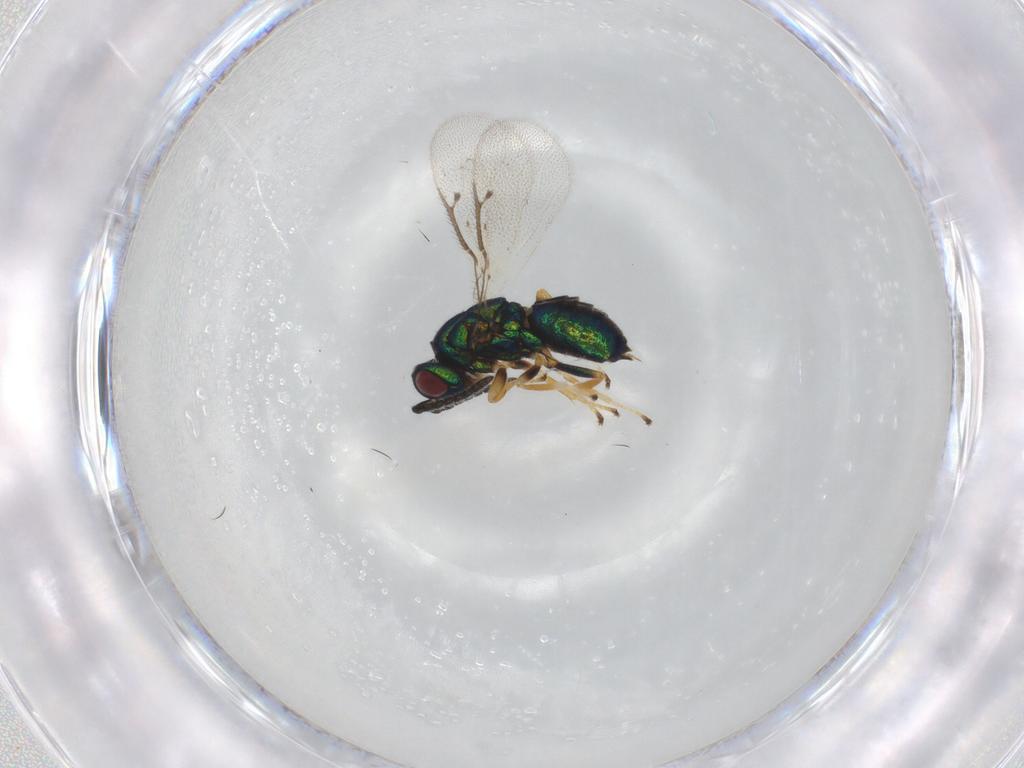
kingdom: Animalia
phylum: Arthropoda
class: Insecta
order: Hymenoptera
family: Pteromalidae
